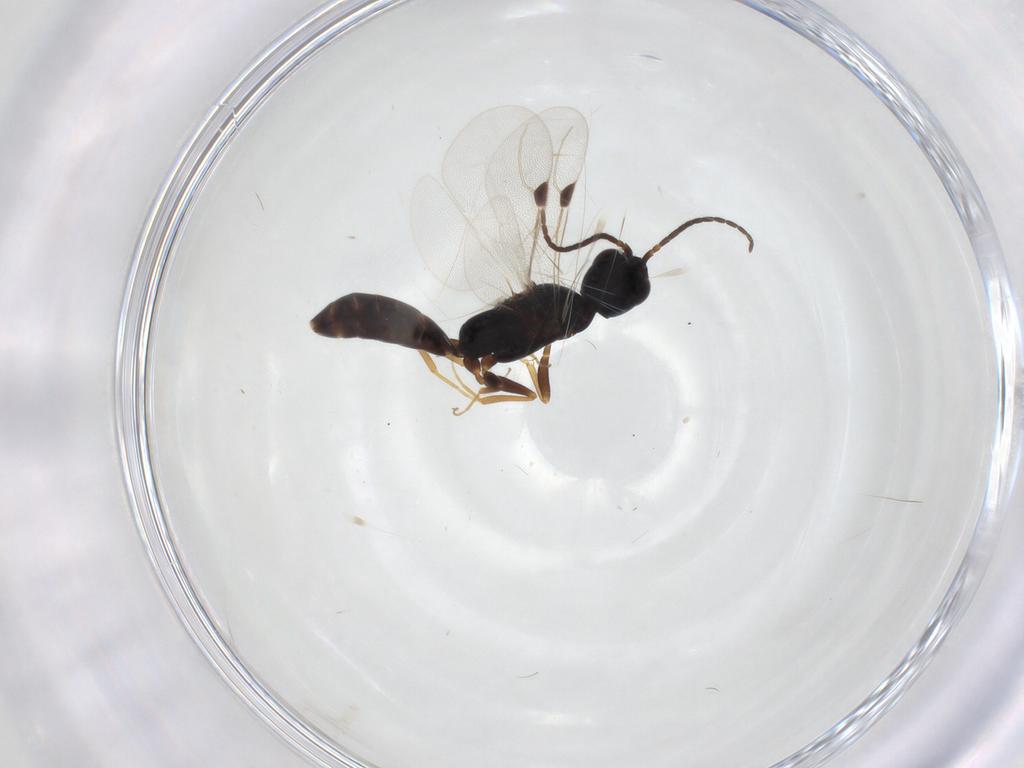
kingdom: Animalia
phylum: Arthropoda
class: Insecta
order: Hymenoptera
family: Bethylidae
